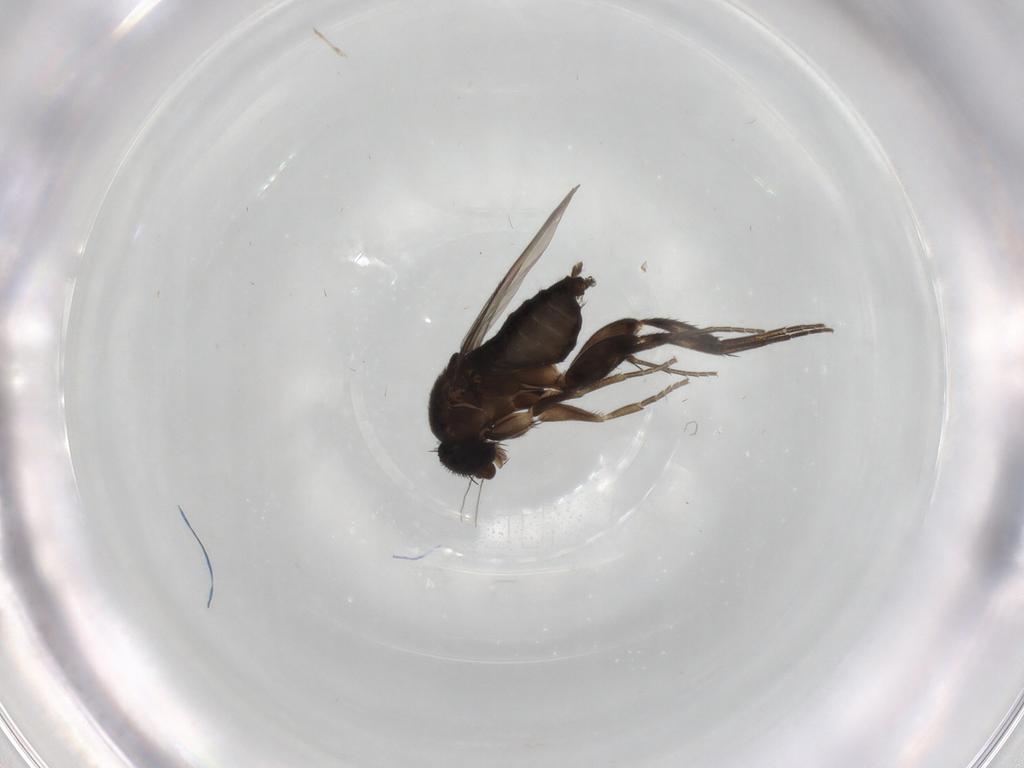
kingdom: Animalia
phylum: Arthropoda
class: Insecta
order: Diptera
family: Phoridae
